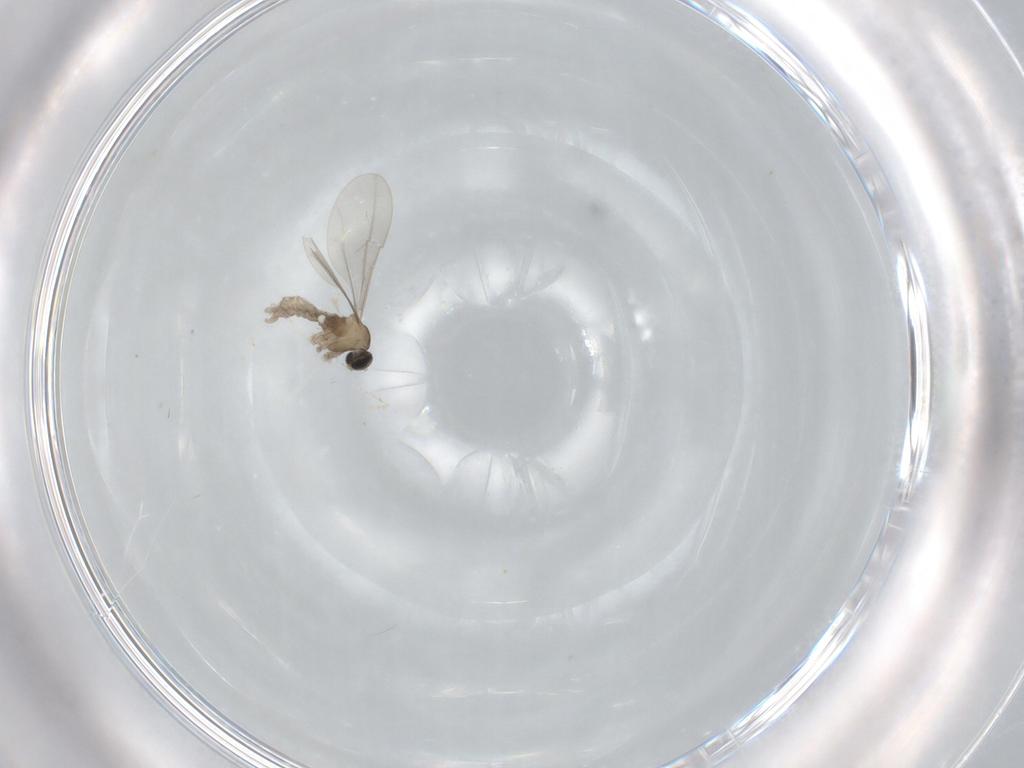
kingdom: Animalia
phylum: Arthropoda
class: Insecta
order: Diptera
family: Cecidomyiidae
